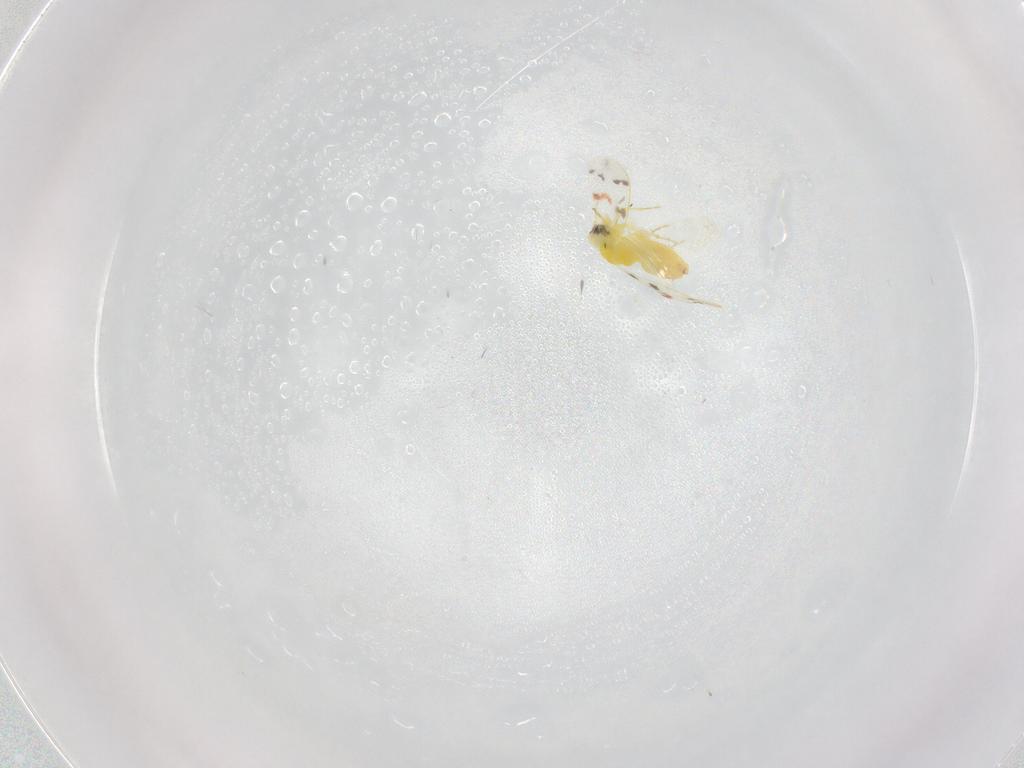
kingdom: Animalia
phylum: Arthropoda
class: Insecta
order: Hemiptera
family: Aleyrodidae
